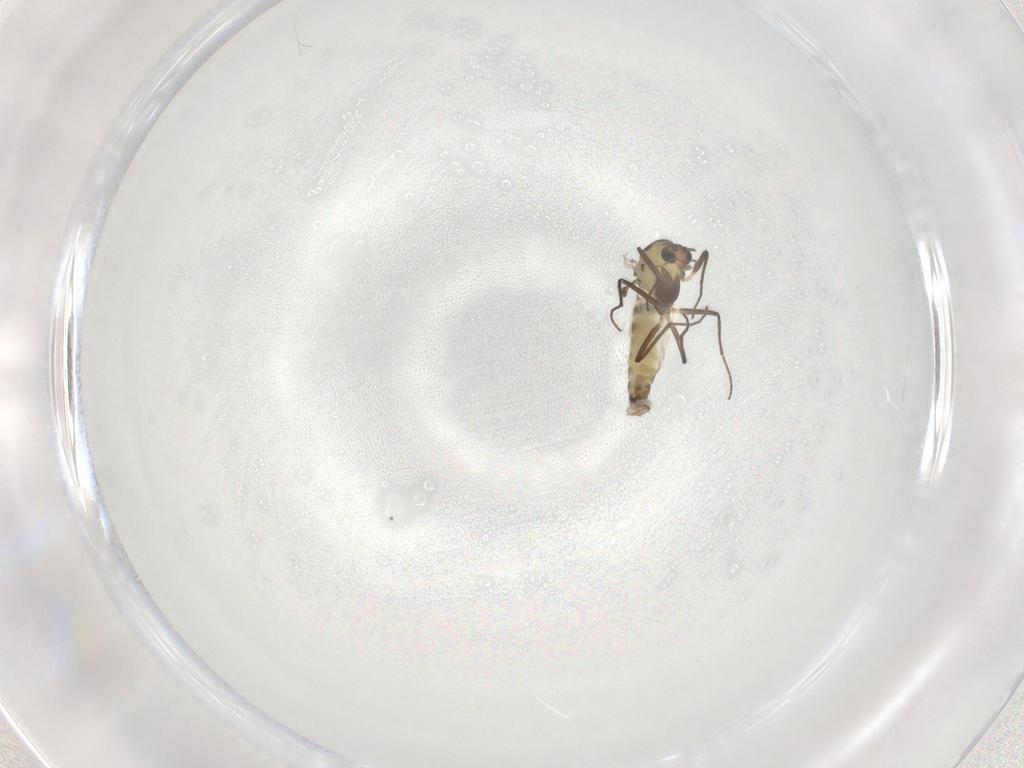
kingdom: Animalia
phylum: Arthropoda
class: Insecta
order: Diptera
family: Chironomidae
